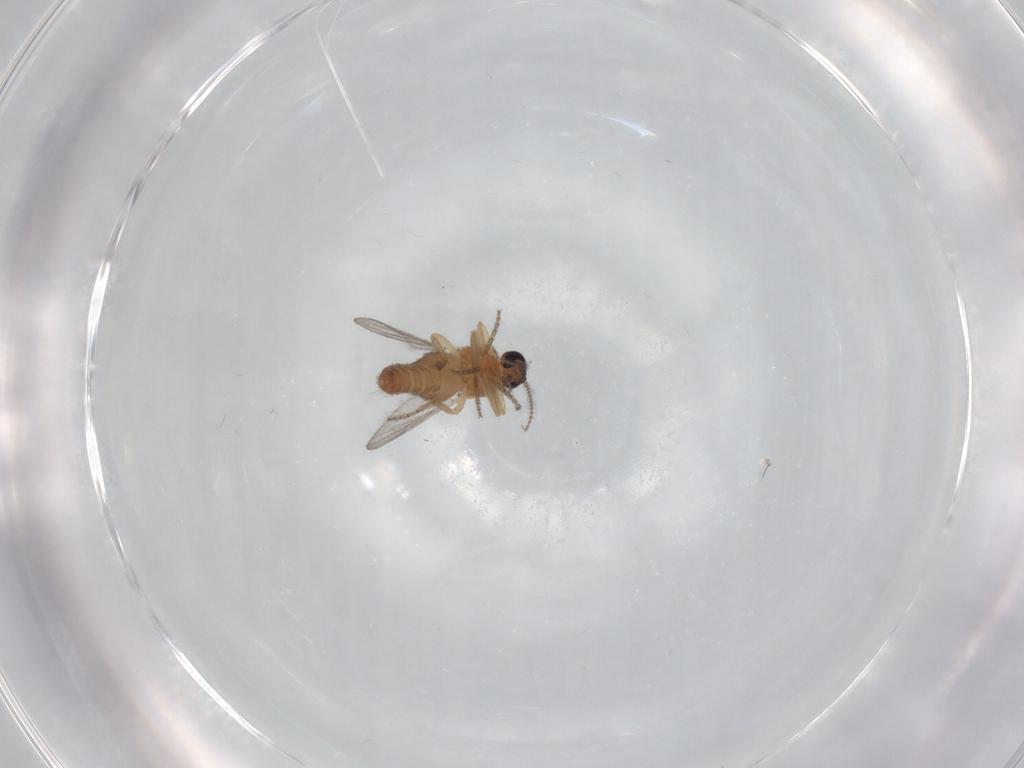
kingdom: Animalia
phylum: Arthropoda
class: Insecta
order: Diptera
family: Ceratopogonidae
